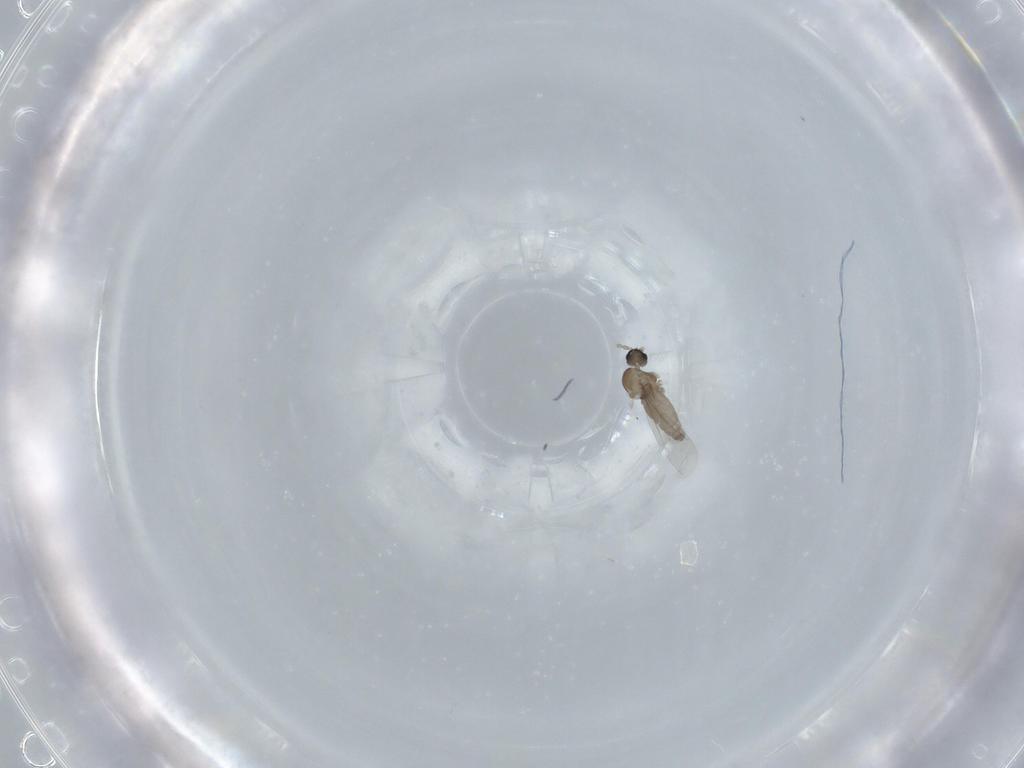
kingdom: Animalia
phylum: Arthropoda
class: Insecta
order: Diptera
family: Cecidomyiidae
